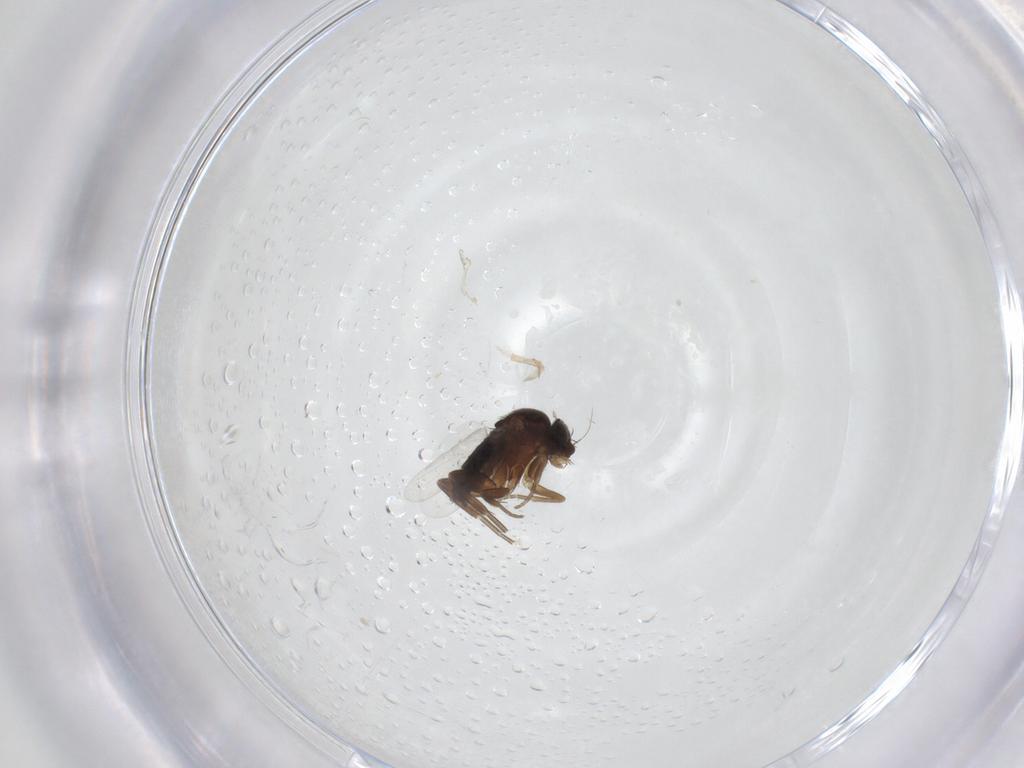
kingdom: Animalia
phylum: Arthropoda
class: Insecta
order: Diptera
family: Phoridae
